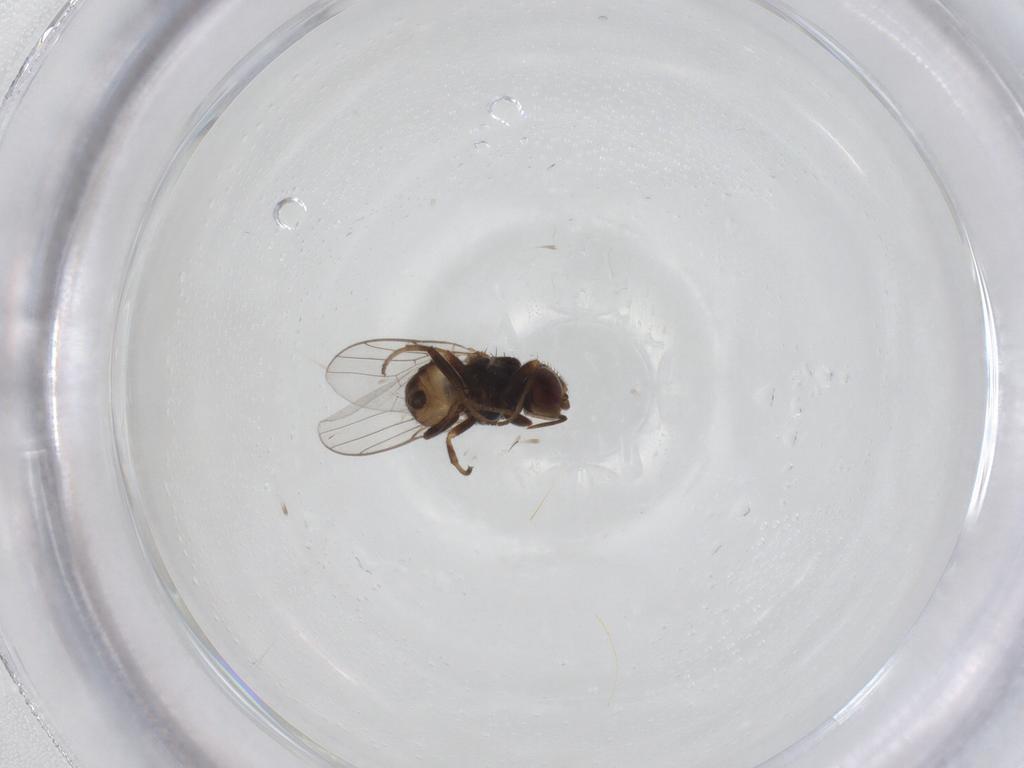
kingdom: Animalia
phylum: Arthropoda
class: Insecta
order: Diptera
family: Chloropidae
